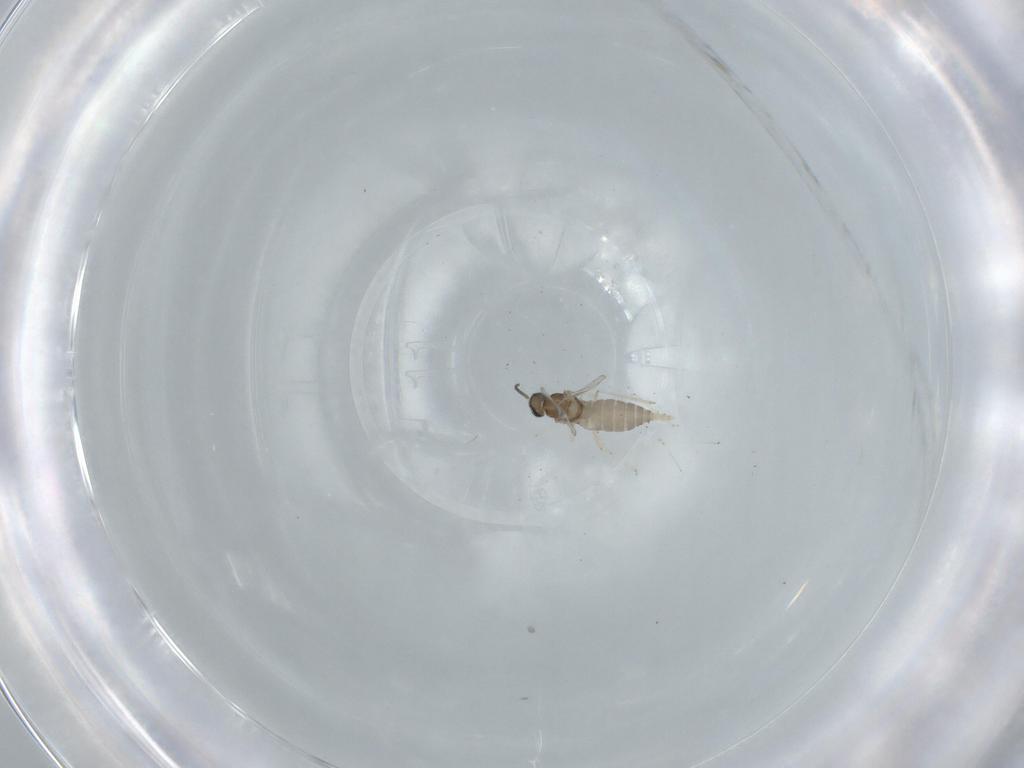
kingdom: Animalia
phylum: Arthropoda
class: Insecta
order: Diptera
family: Cecidomyiidae
